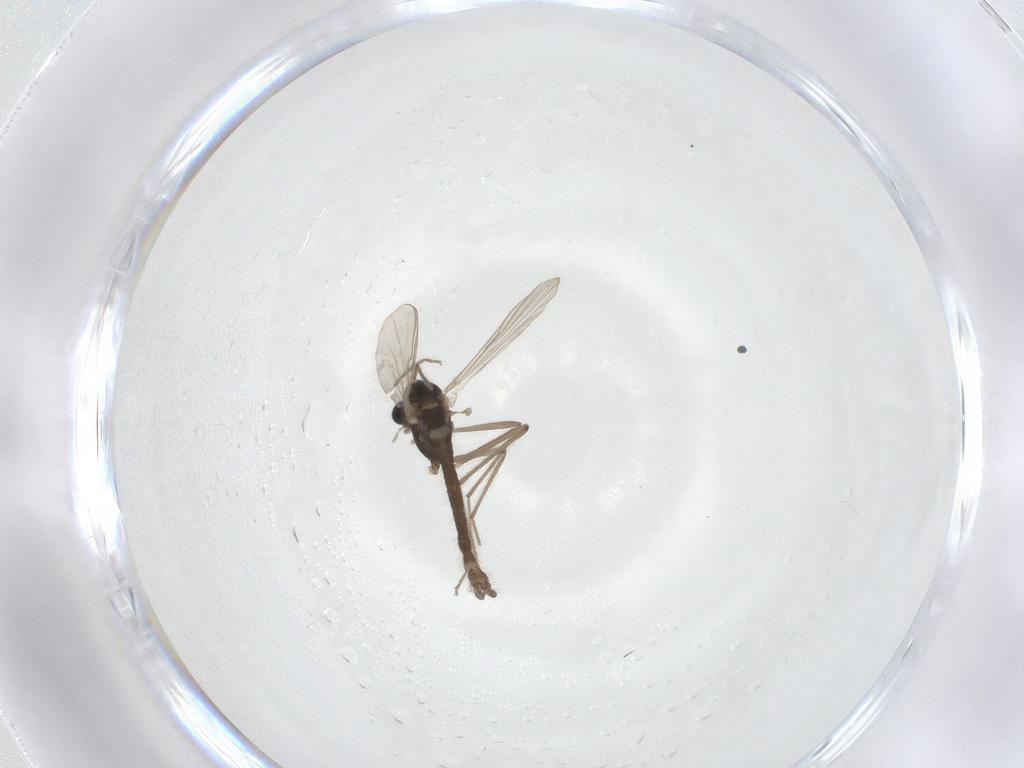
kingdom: Animalia
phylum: Arthropoda
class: Insecta
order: Diptera
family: Chironomidae
